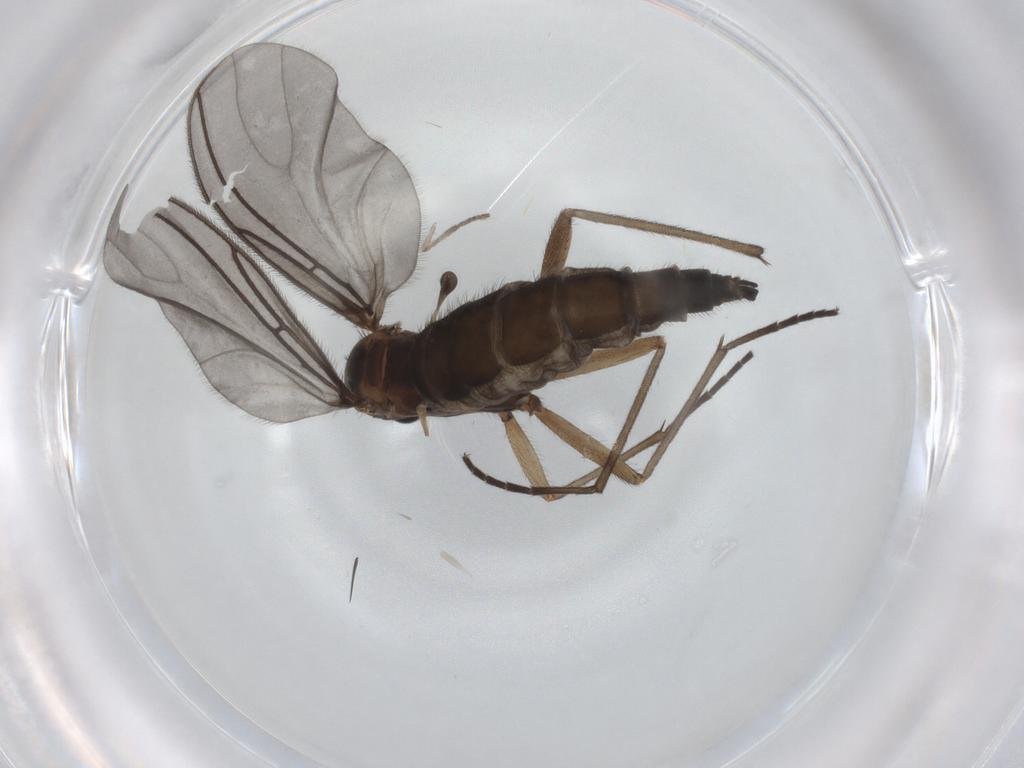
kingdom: Animalia
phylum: Arthropoda
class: Insecta
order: Diptera
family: Sciaridae
